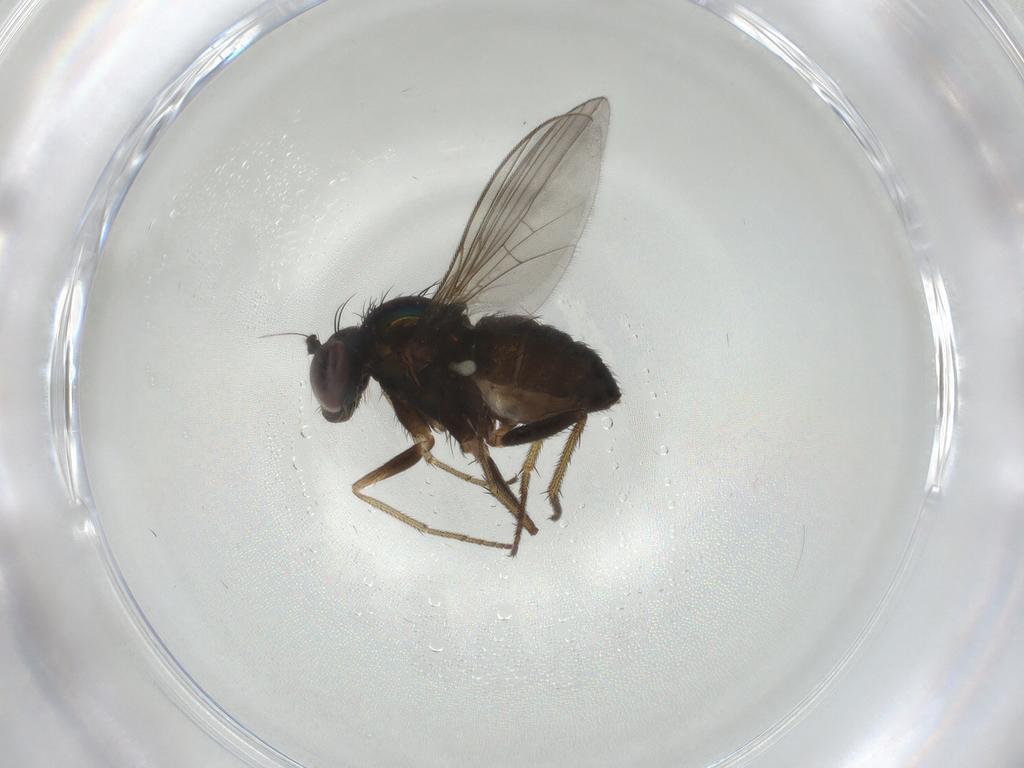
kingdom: Animalia
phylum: Arthropoda
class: Insecta
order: Diptera
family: Dolichopodidae
